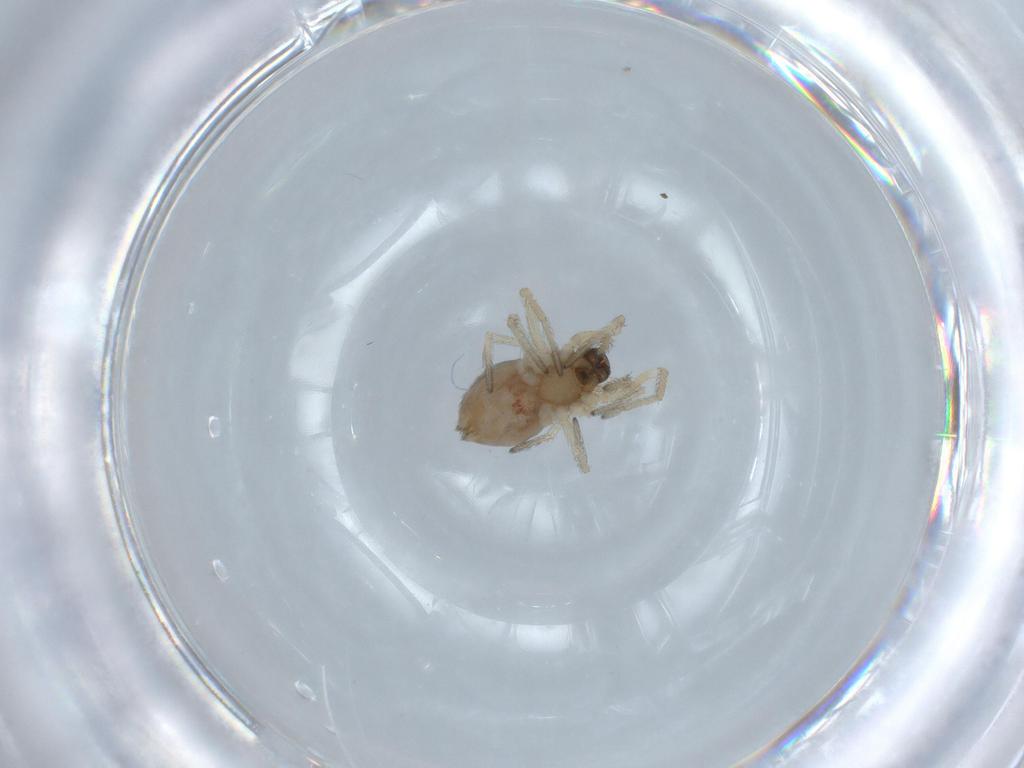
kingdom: Animalia
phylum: Arthropoda
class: Arachnida
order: Araneae
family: Dictynidae
